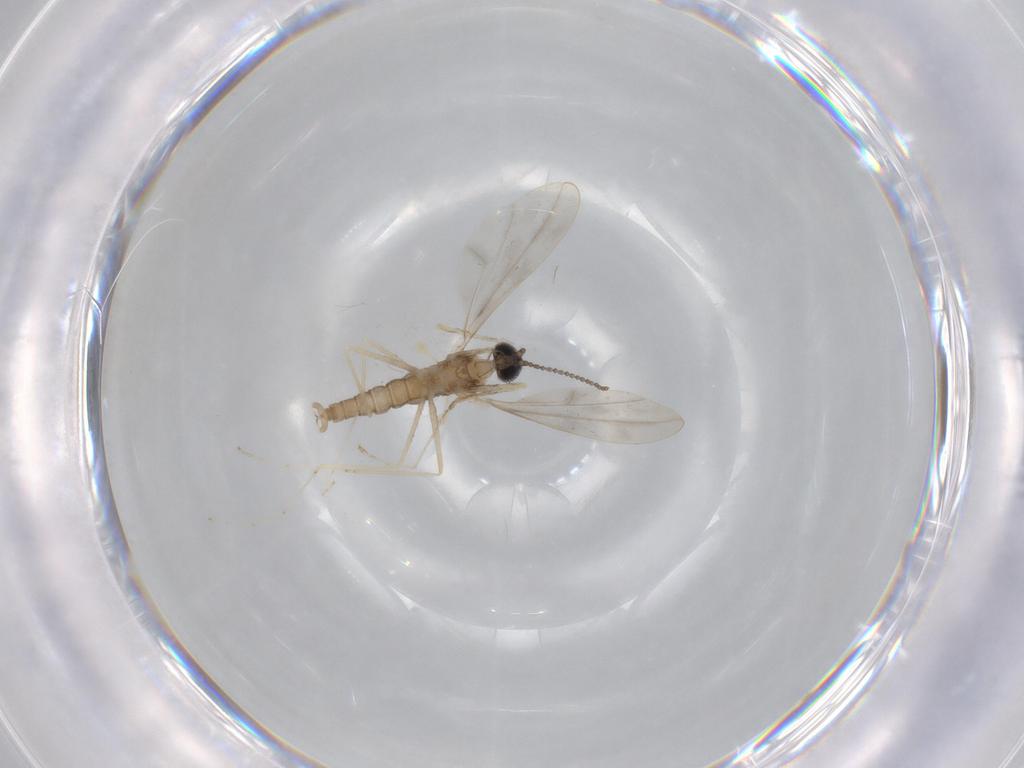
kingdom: Animalia
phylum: Arthropoda
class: Insecta
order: Diptera
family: Cecidomyiidae
